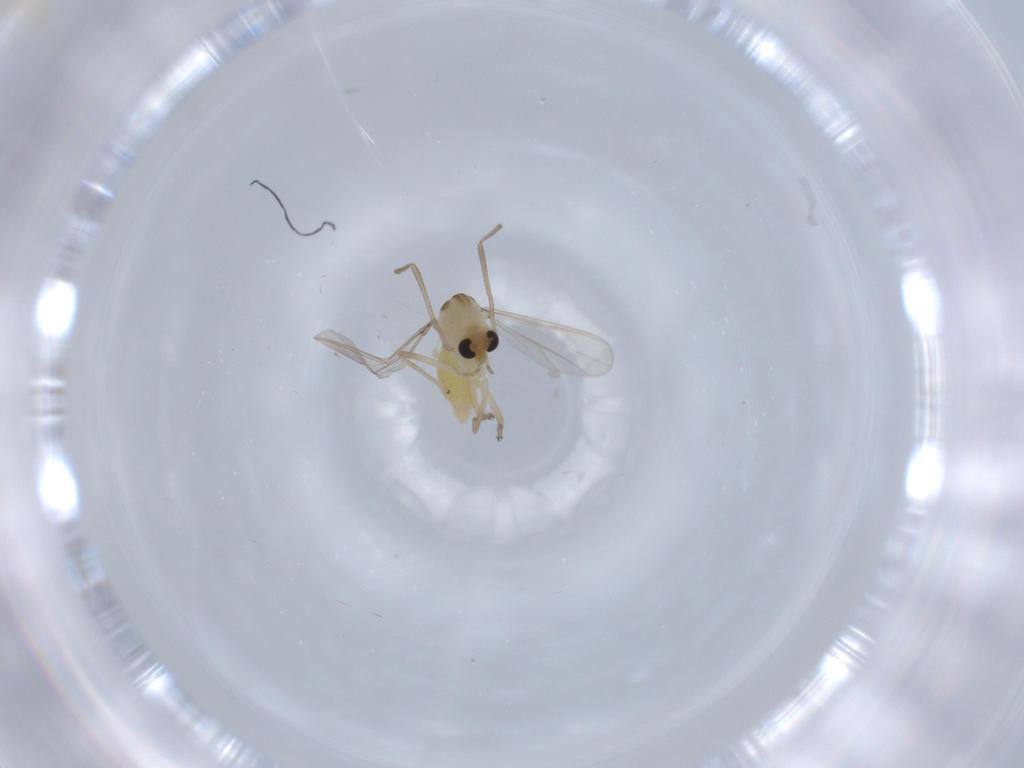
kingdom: Animalia
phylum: Arthropoda
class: Insecta
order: Diptera
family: Chironomidae
